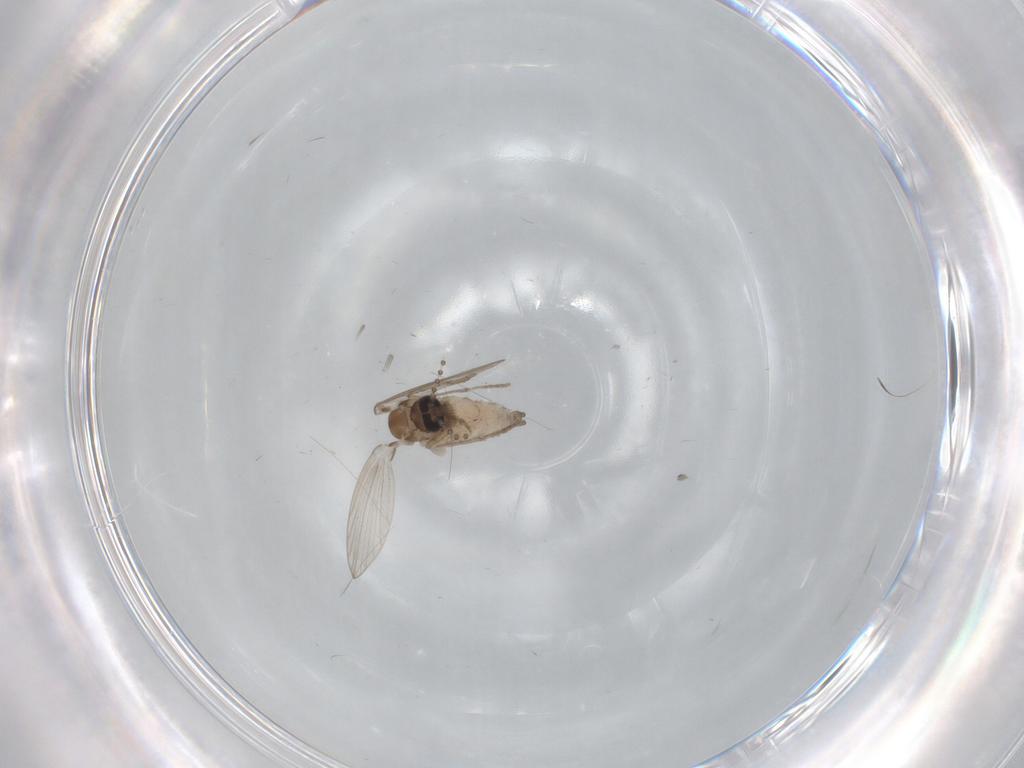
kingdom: Animalia
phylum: Arthropoda
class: Insecta
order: Diptera
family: Psychodidae
